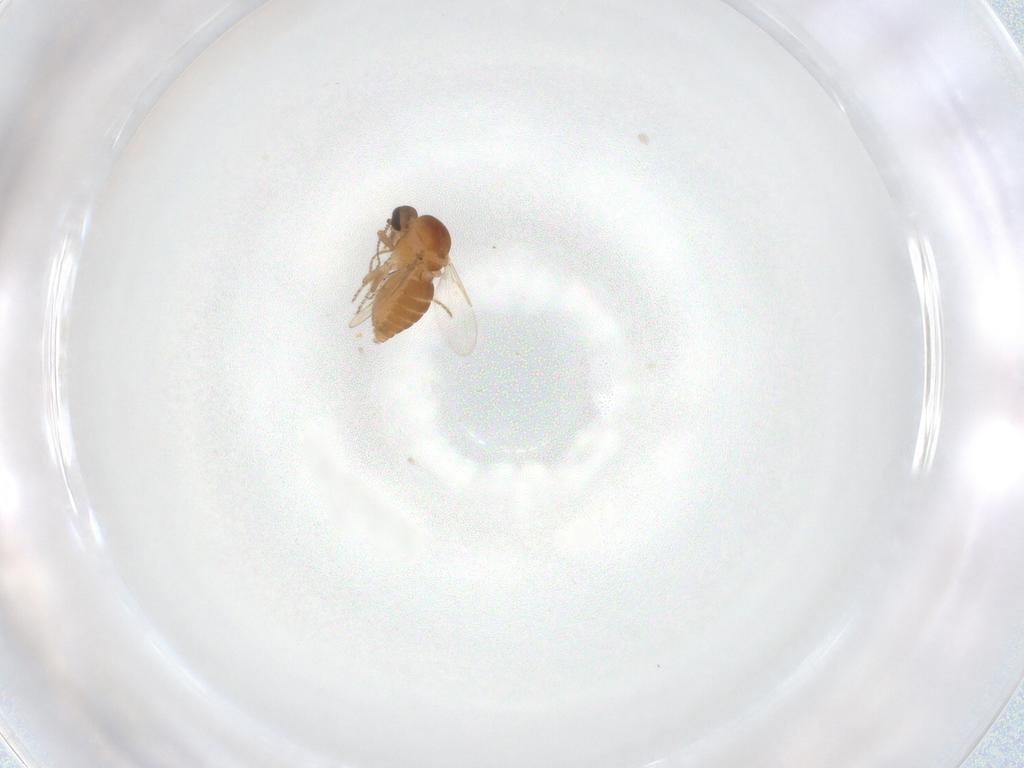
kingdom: Animalia
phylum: Arthropoda
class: Insecta
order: Diptera
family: Ceratopogonidae
